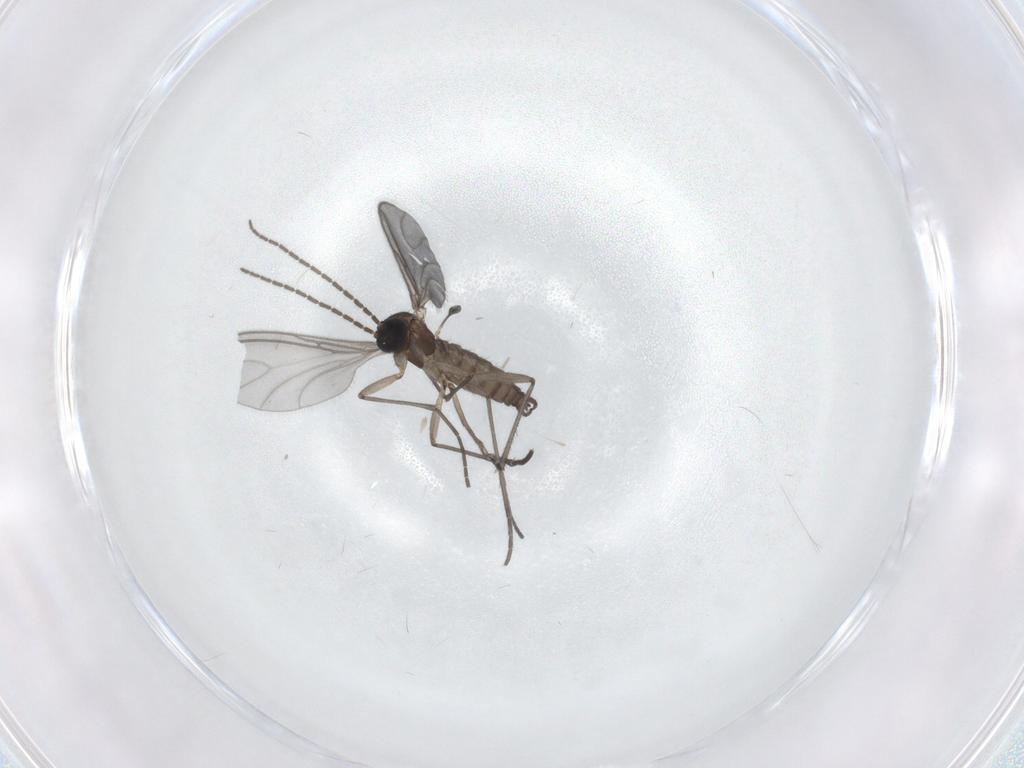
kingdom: Animalia
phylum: Arthropoda
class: Insecta
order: Diptera
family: Sciaridae
